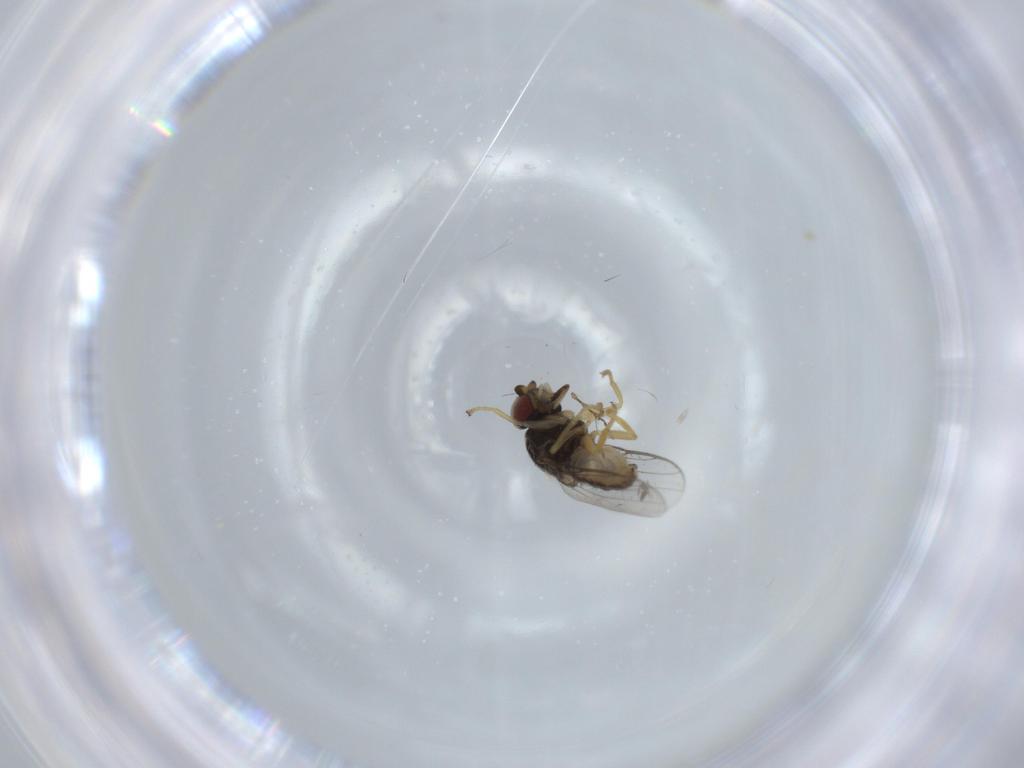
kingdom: Animalia
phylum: Arthropoda
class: Insecta
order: Diptera
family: Chloropidae
